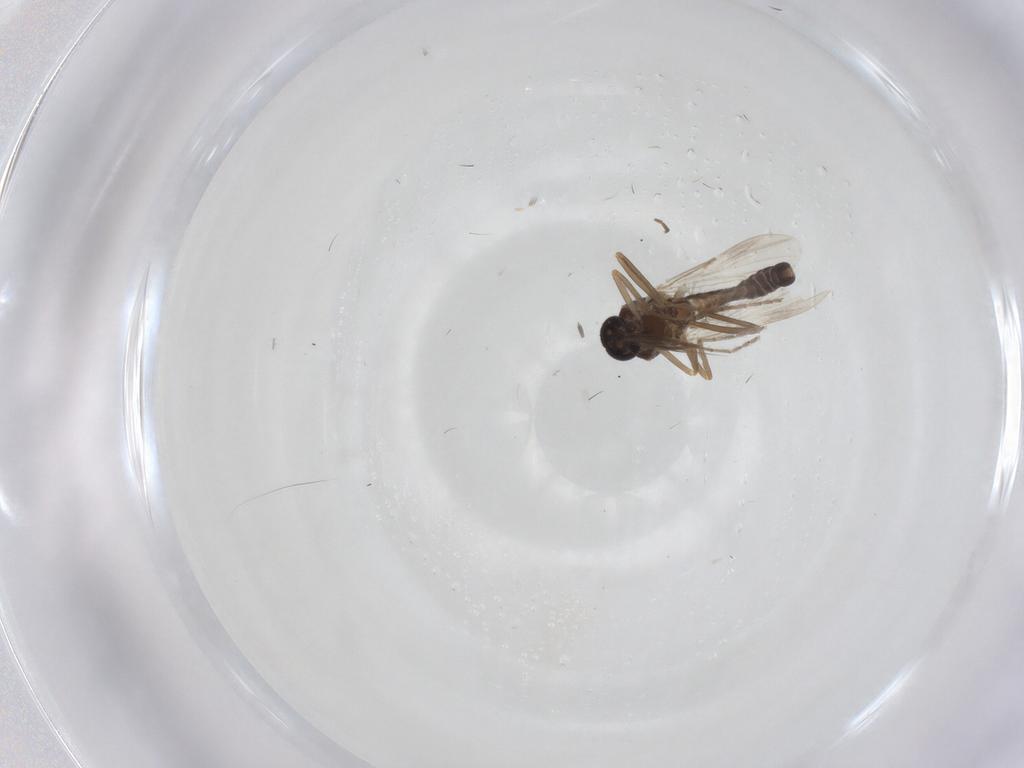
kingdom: Animalia
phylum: Arthropoda
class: Insecta
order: Diptera
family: Ceratopogonidae
